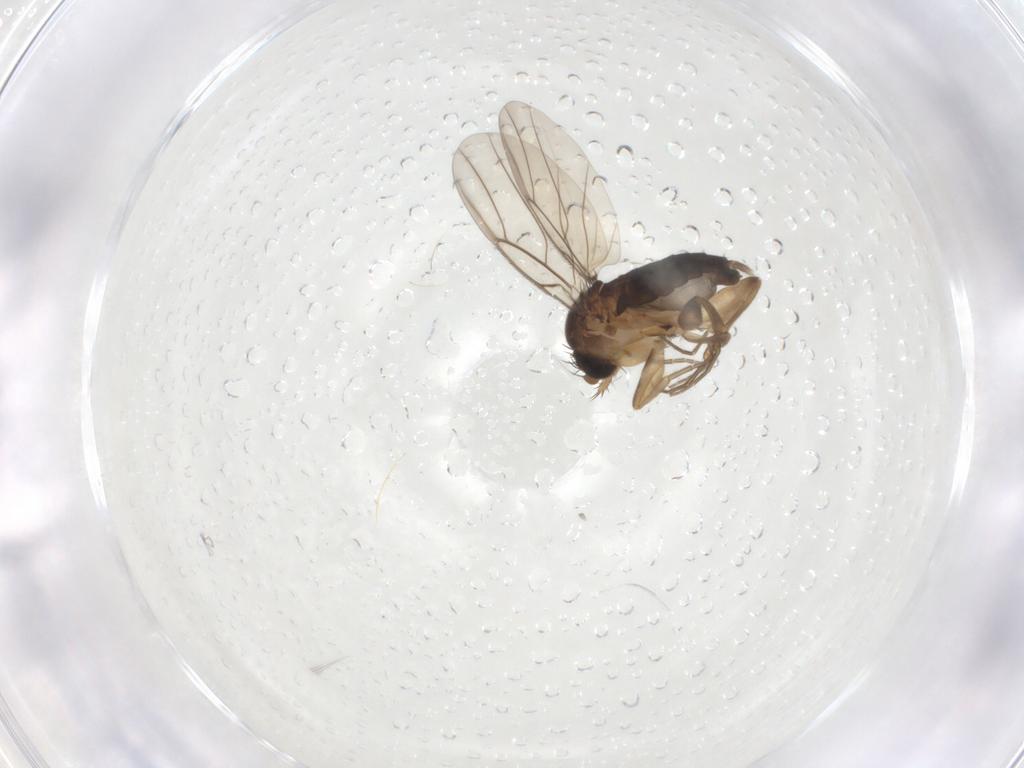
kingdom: Animalia
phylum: Arthropoda
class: Insecta
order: Diptera
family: Phoridae
